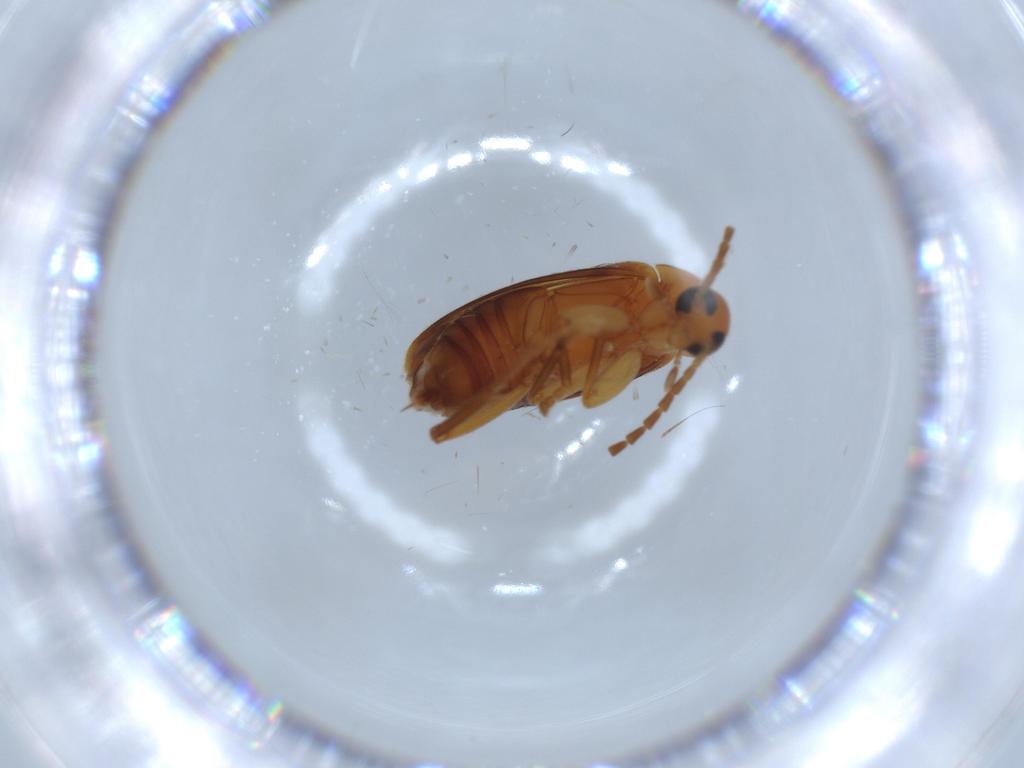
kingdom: Animalia
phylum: Arthropoda
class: Insecta
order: Coleoptera
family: Scraptiidae
